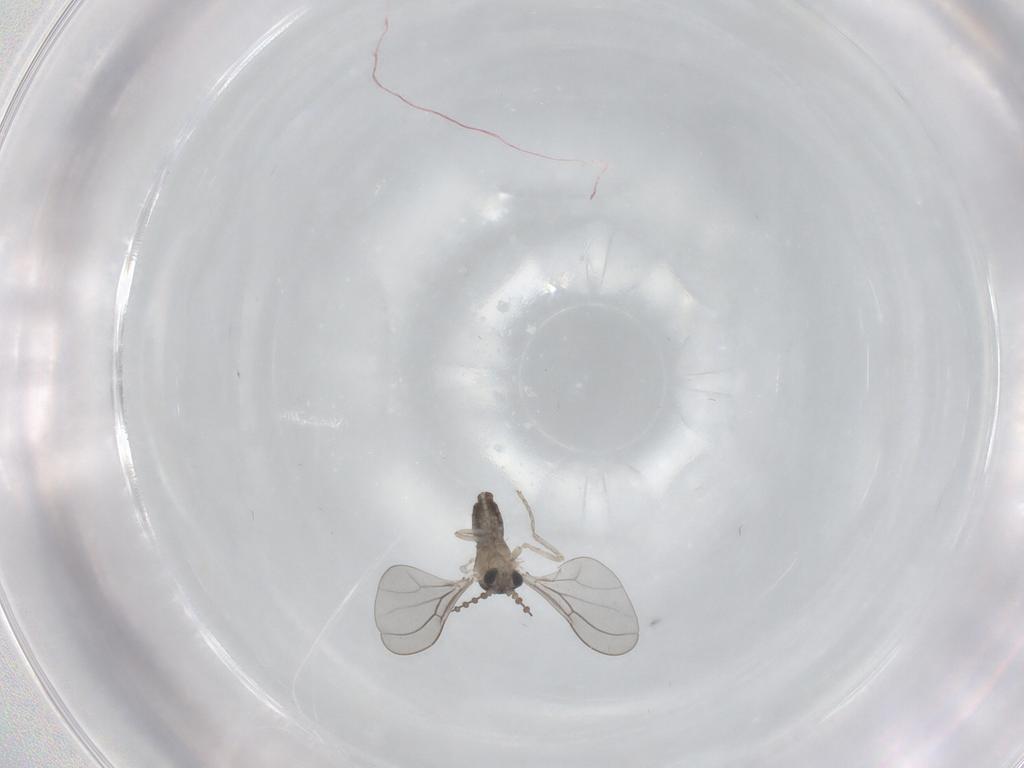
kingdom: Animalia
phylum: Arthropoda
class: Insecta
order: Diptera
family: Cecidomyiidae
